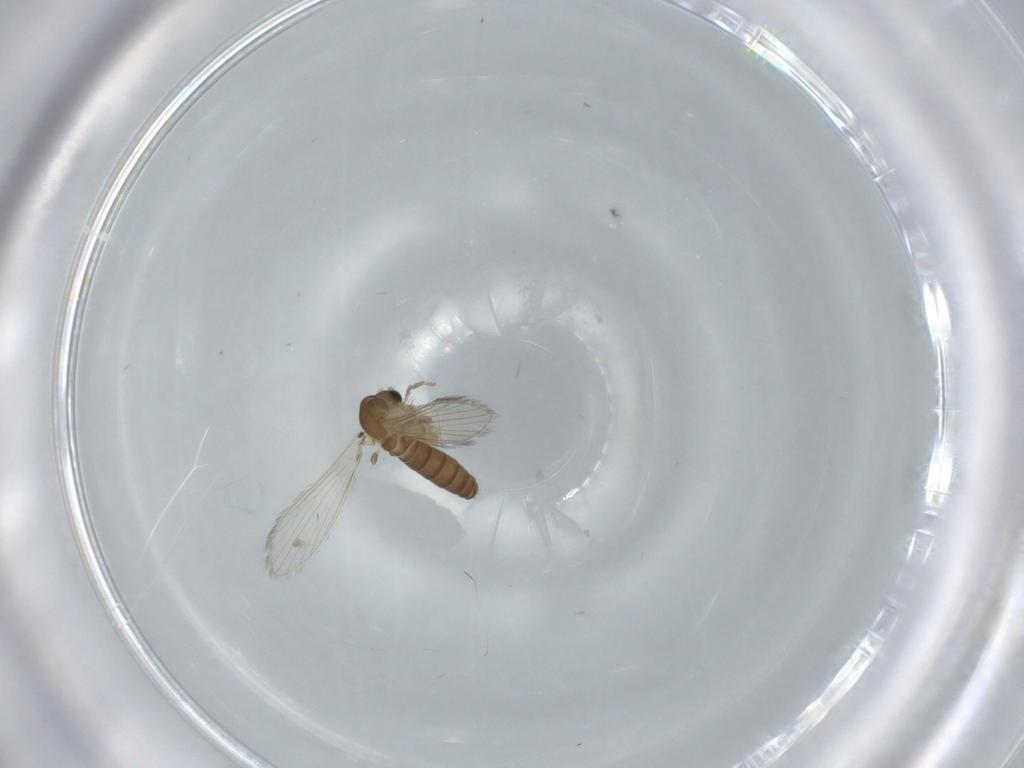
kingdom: Animalia
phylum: Arthropoda
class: Insecta
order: Diptera
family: Psychodidae
